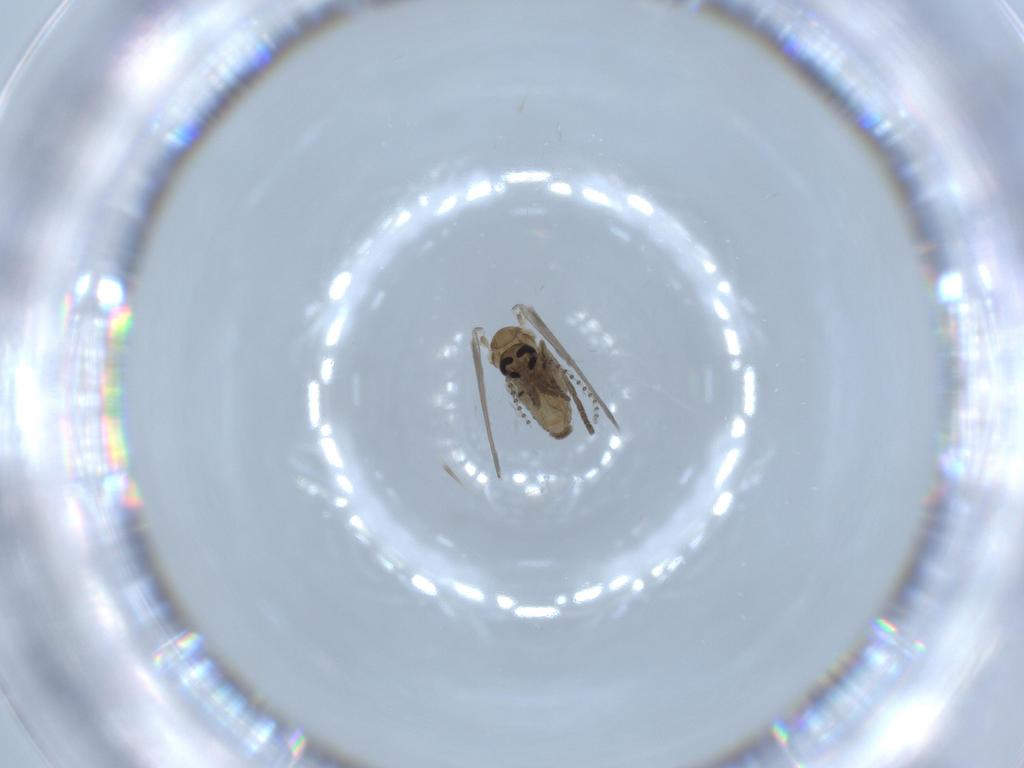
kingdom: Animalia
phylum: Arthropoda
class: Insecta
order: Diptera
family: Psychodidae
